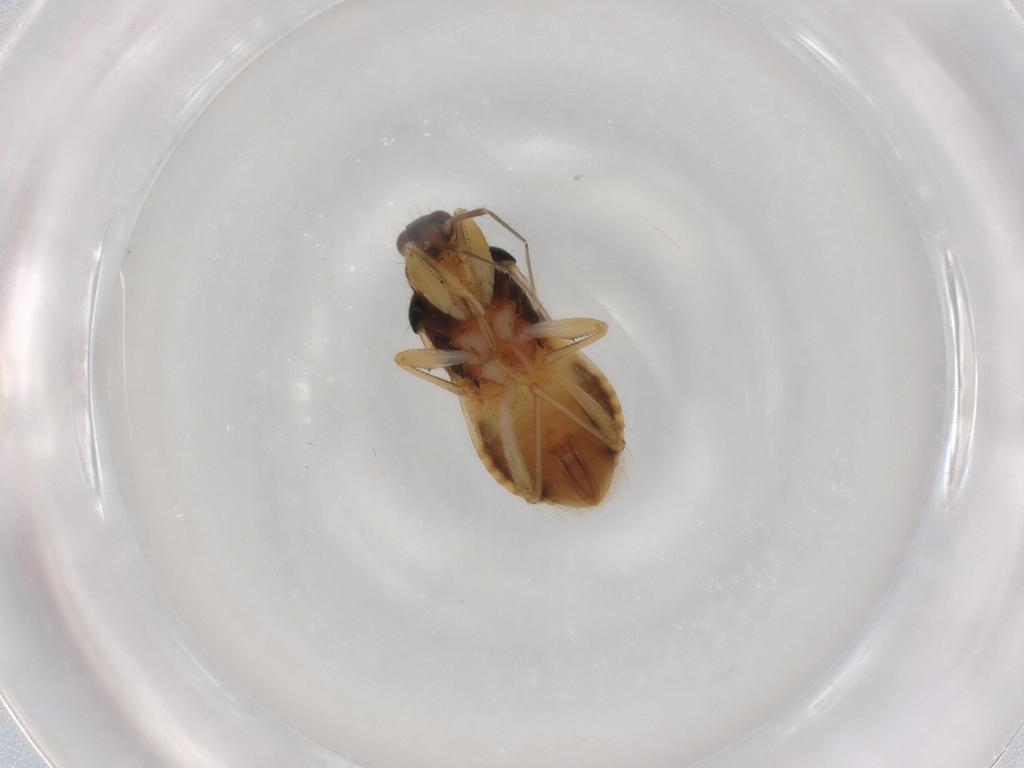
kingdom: Animalia
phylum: Arthropoda
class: Insecta
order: Hemiptera
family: Nabidae
